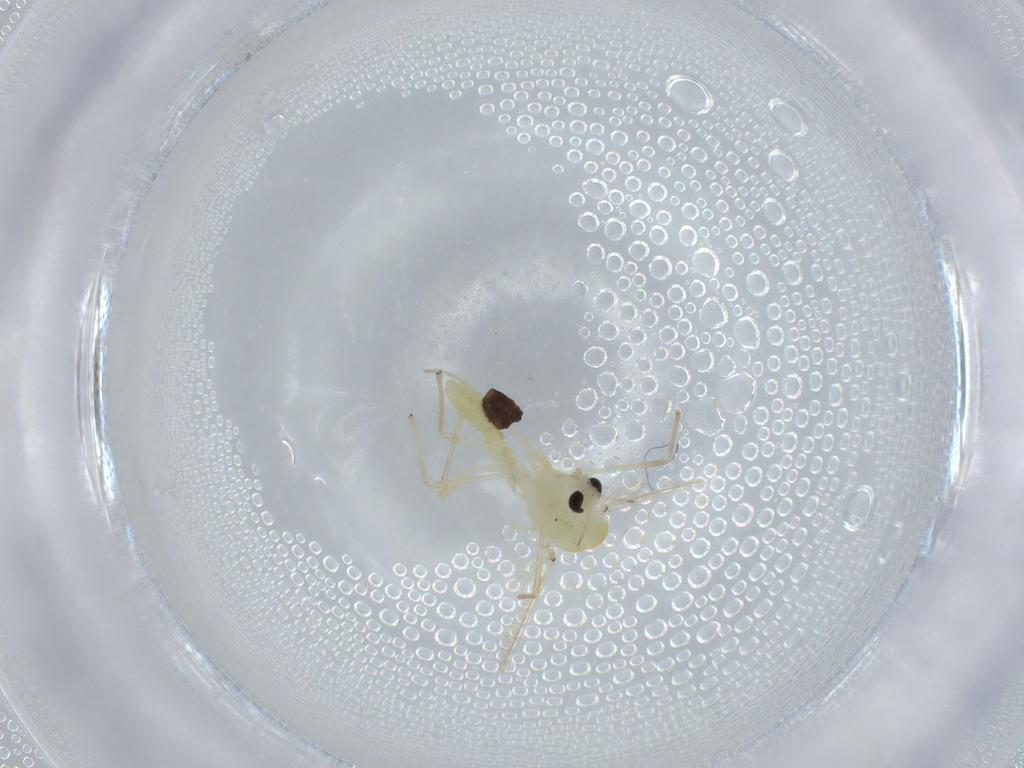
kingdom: Animalia
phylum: Arthropoda
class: Insecta
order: Diptera
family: Chironomidae
